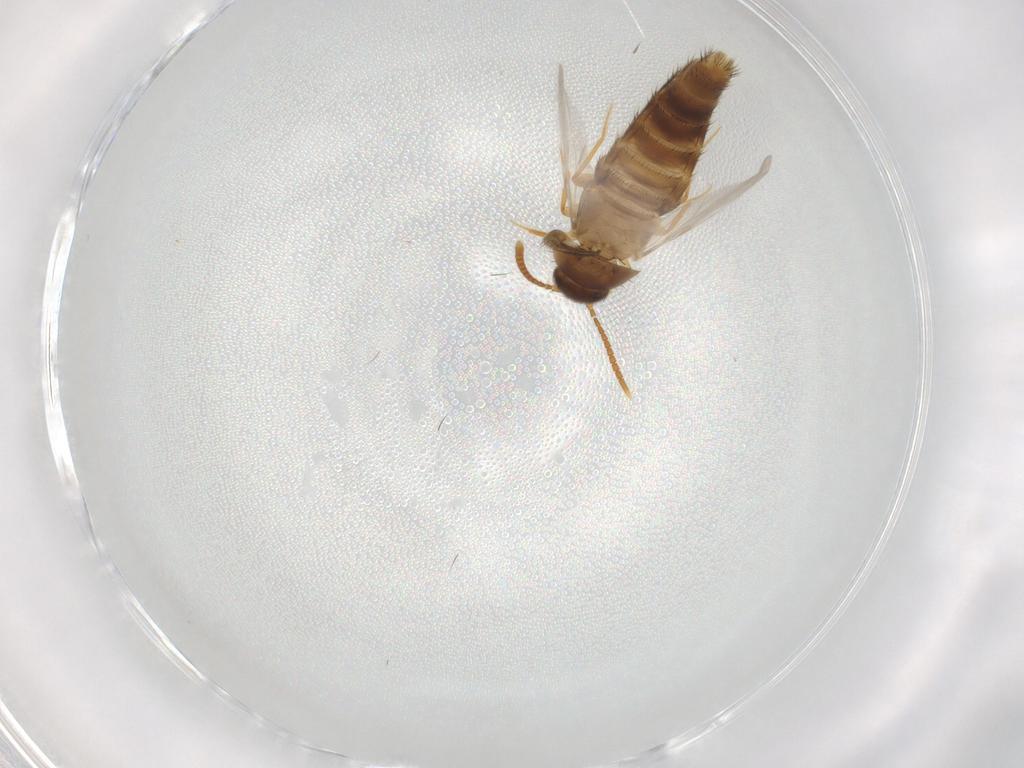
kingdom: Animalia
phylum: Arthropoda
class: Insecta
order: Coleoptera
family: Staphylinidae
